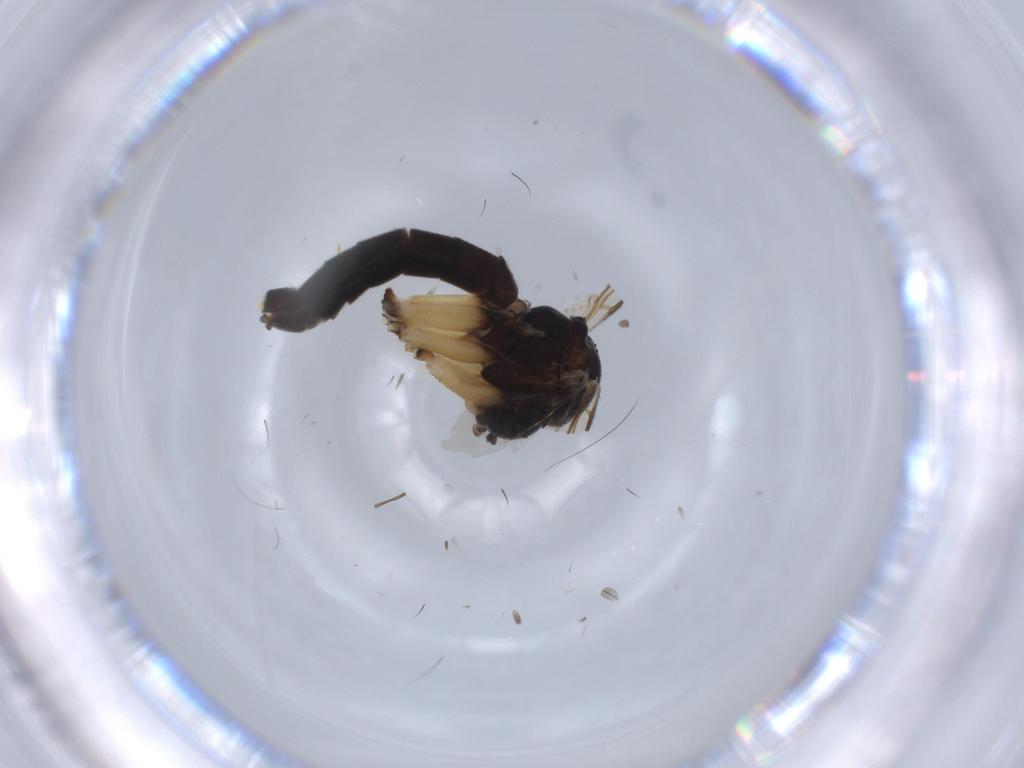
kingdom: Animalia
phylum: Arthropoda
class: Insecta
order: Diptera
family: Mycetophilidae
